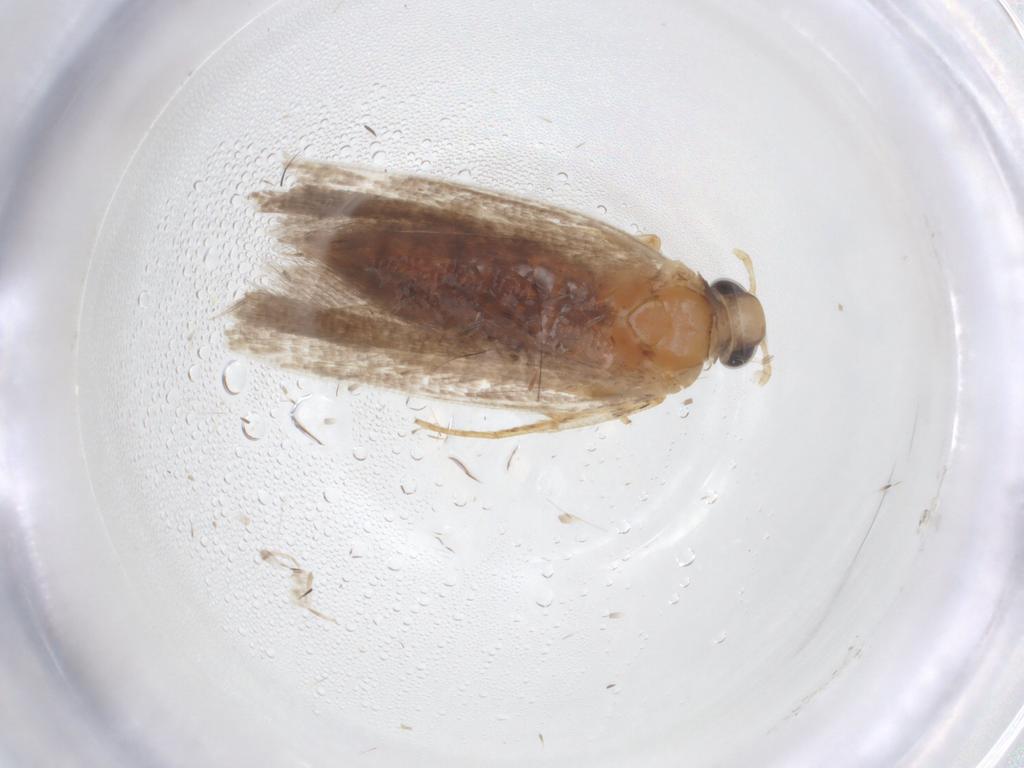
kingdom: Animalia
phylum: Arthropoda
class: Insecta
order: Lepidoptera
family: Gelechiidae
